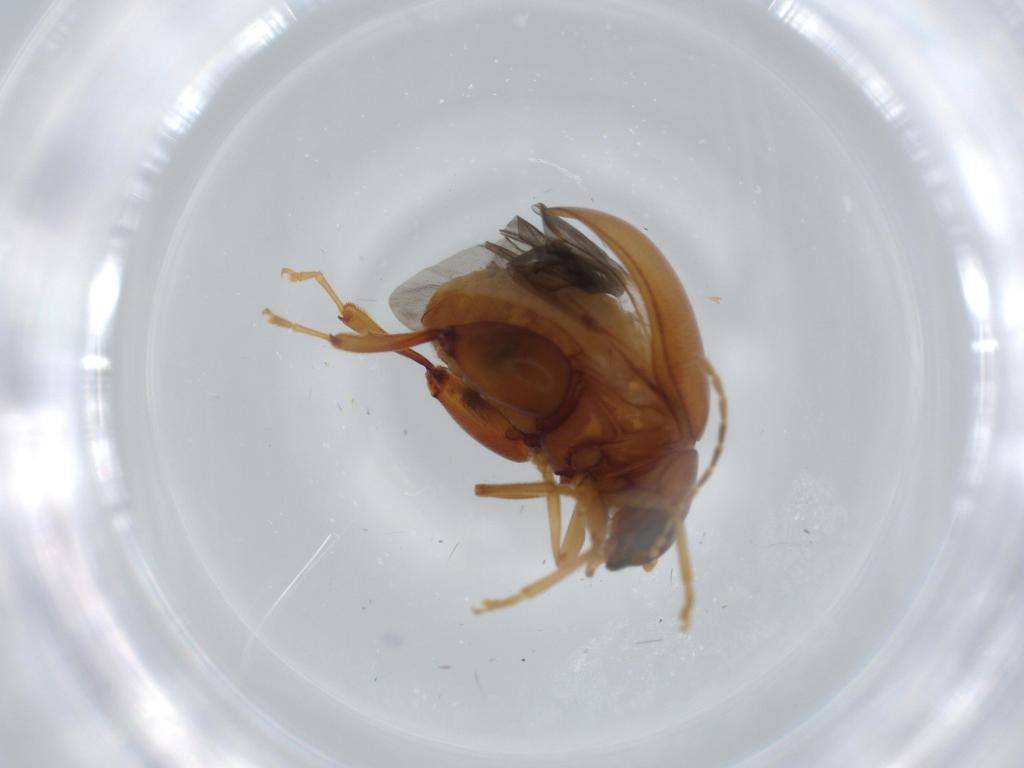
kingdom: Animalia
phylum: Arthropoda
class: Insecta
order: Coleoptera
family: Chrysomelidae
